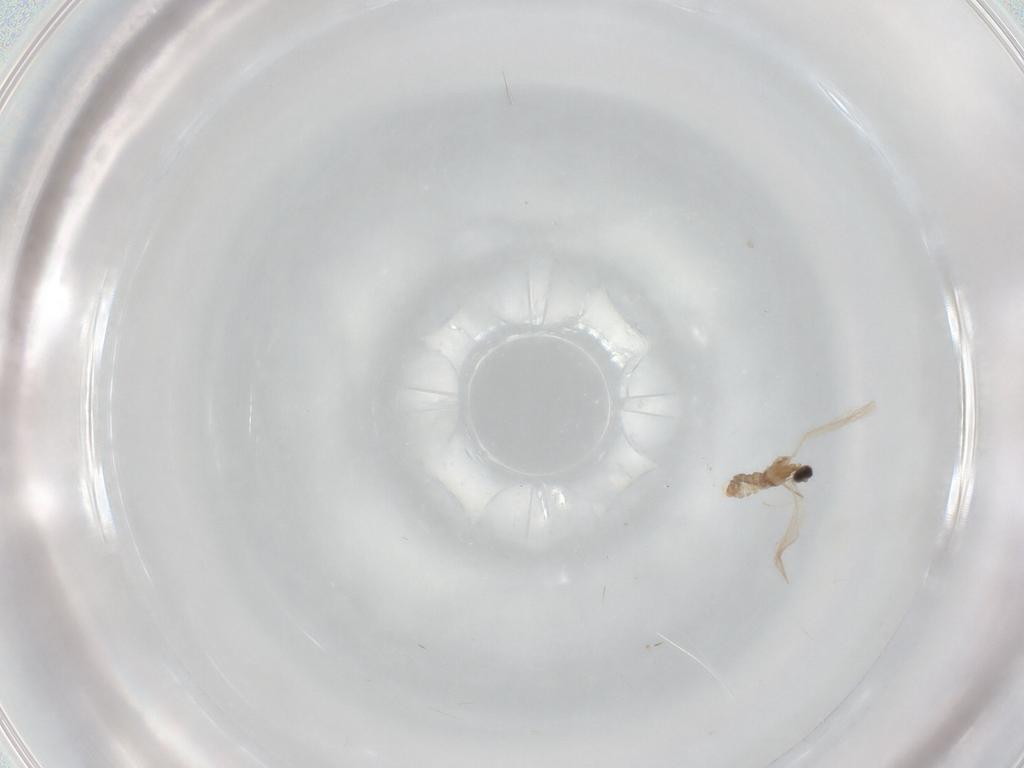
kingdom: Animalia
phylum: Arthropoda
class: Insecta
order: Diptera
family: Cecidomyiidae
